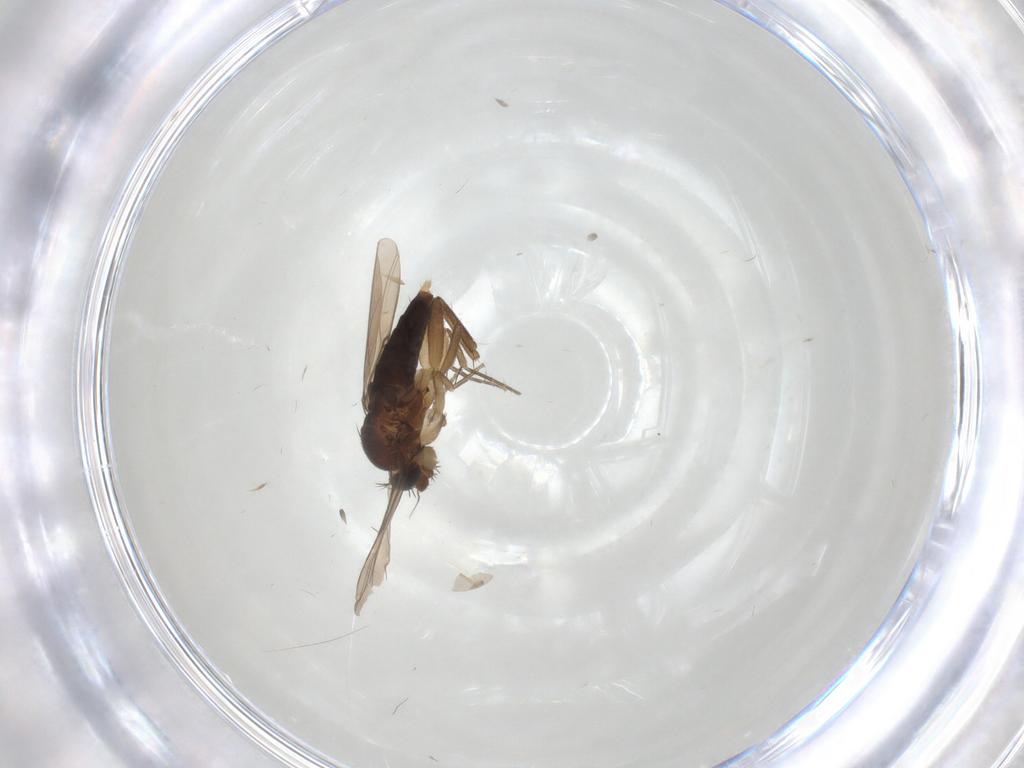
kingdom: Animalia
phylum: Arthropoda
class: Insecta
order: Diptera
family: Phoridae
